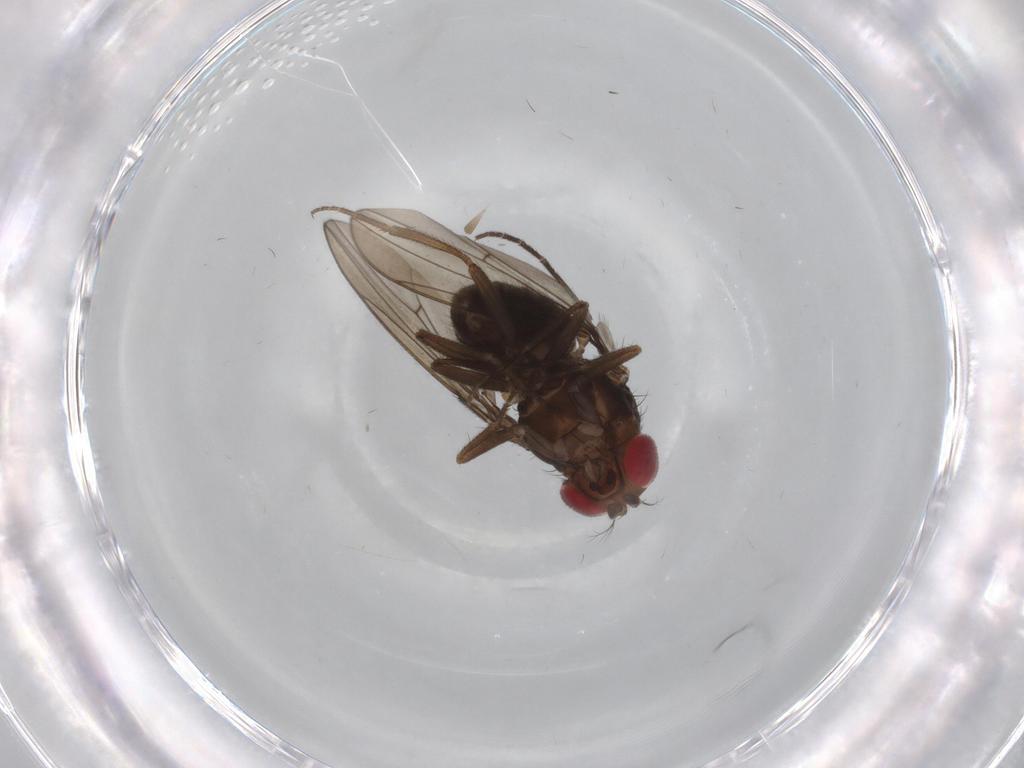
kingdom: Animalia
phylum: Arthropoda
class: Insecta
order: Diptera
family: Drosophilidae
